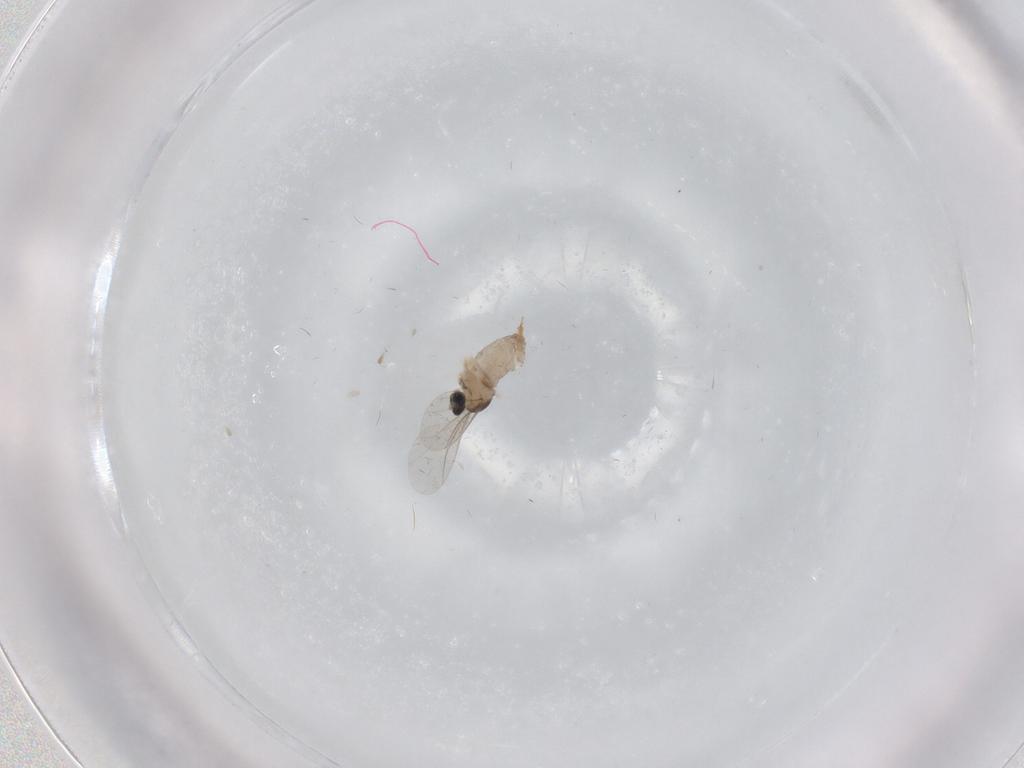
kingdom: Animalia
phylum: Arthropoda
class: Insecta
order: Diptera
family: Cecidomyiidae
